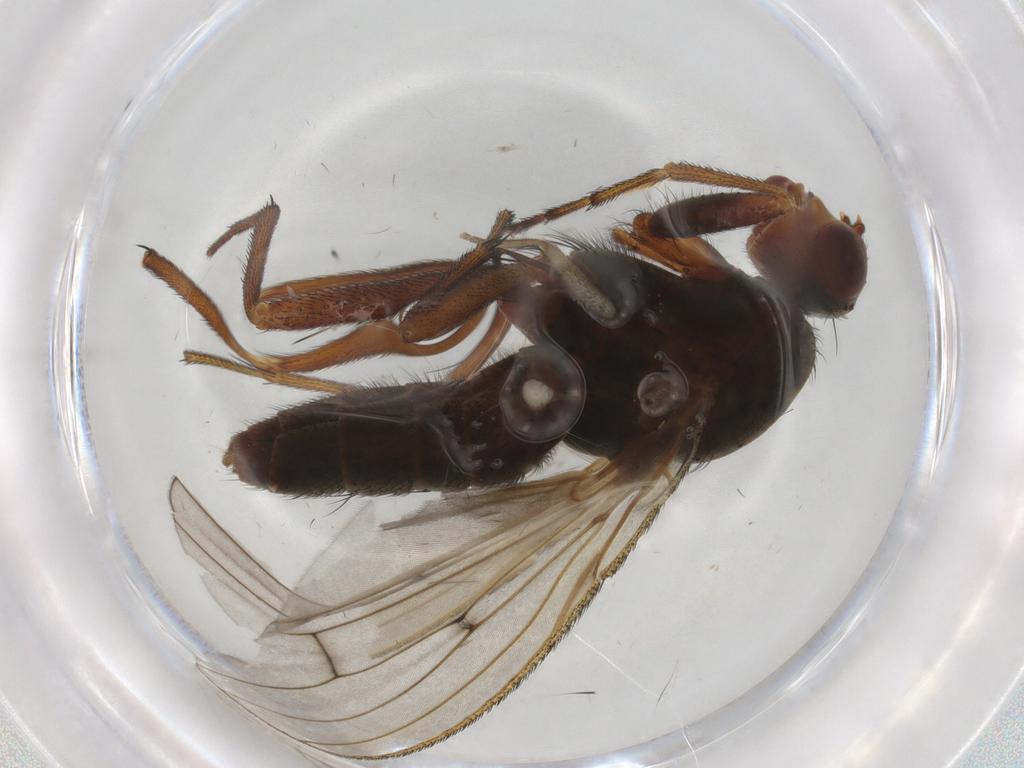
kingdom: Animalia
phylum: Arthropoda
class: Insecta
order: Diptera
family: Heleomyzidae
